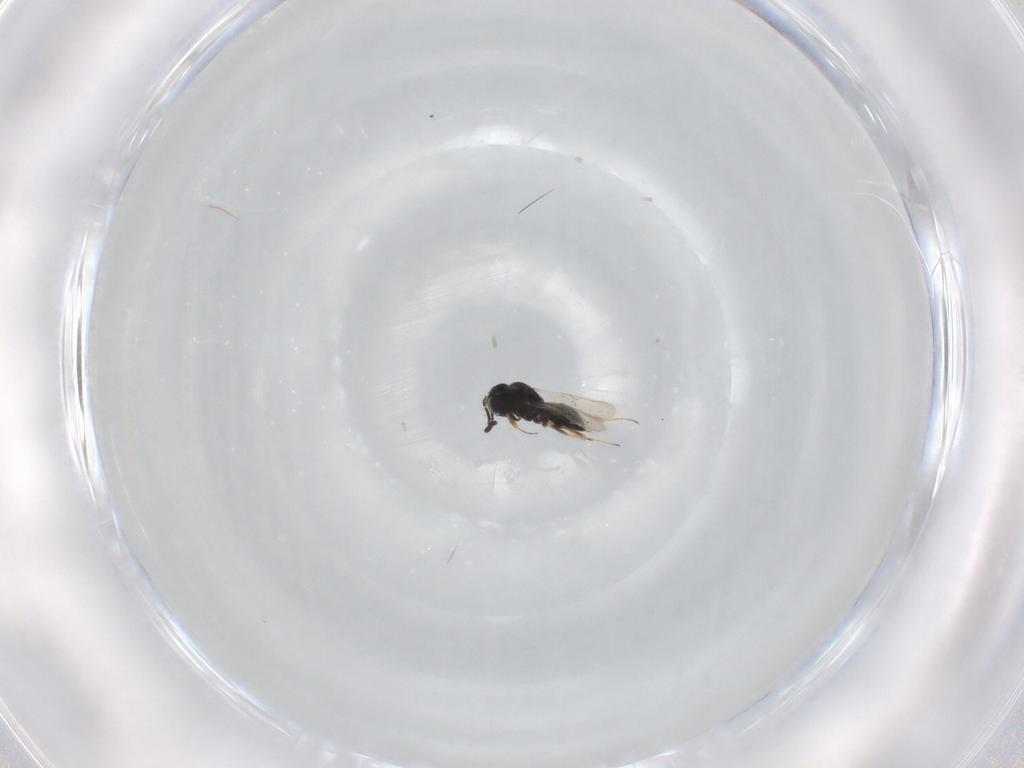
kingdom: Animalia
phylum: Arthropoda
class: Insecta
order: Hymenoptera
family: Scelionidae
